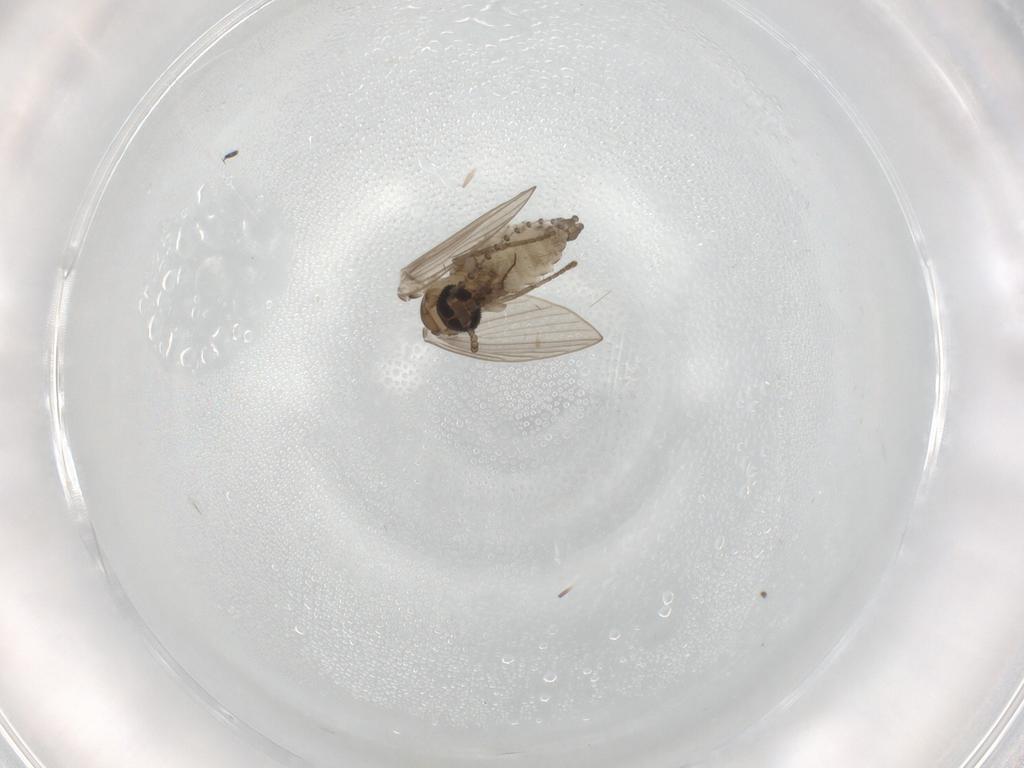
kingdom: Animalia
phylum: Arthropoda
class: Insecta
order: Diptera
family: Psychodidae
